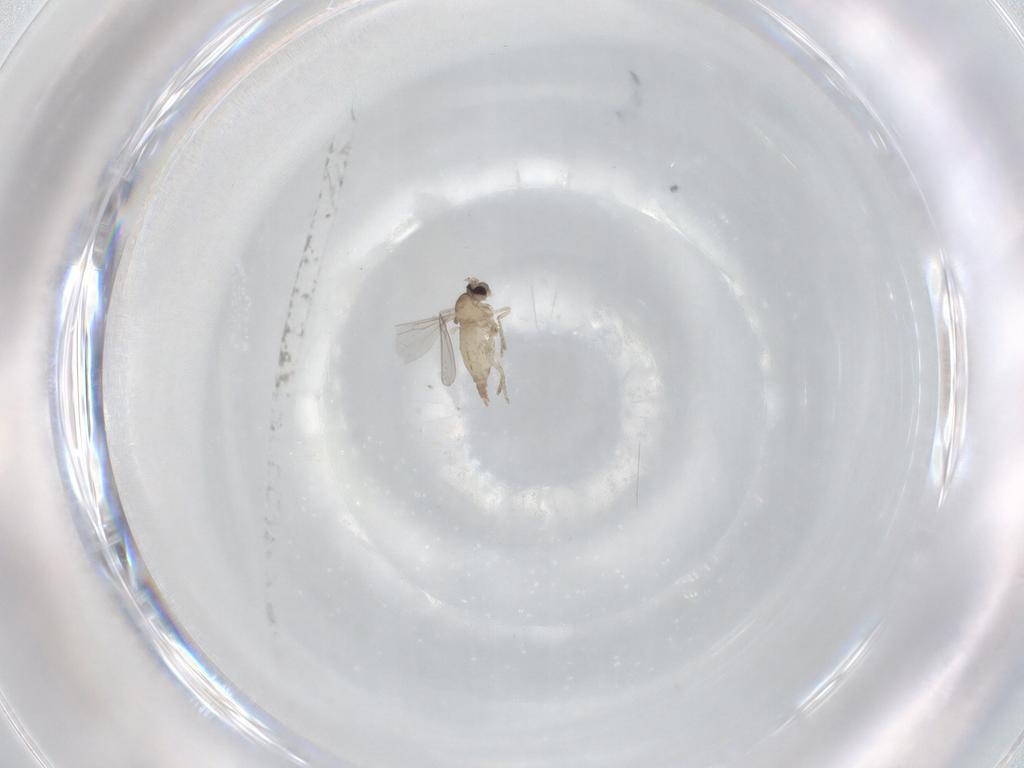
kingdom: Animalia
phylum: Arthropoda
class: Insecta
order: Diptera
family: Cecidomyiidae
